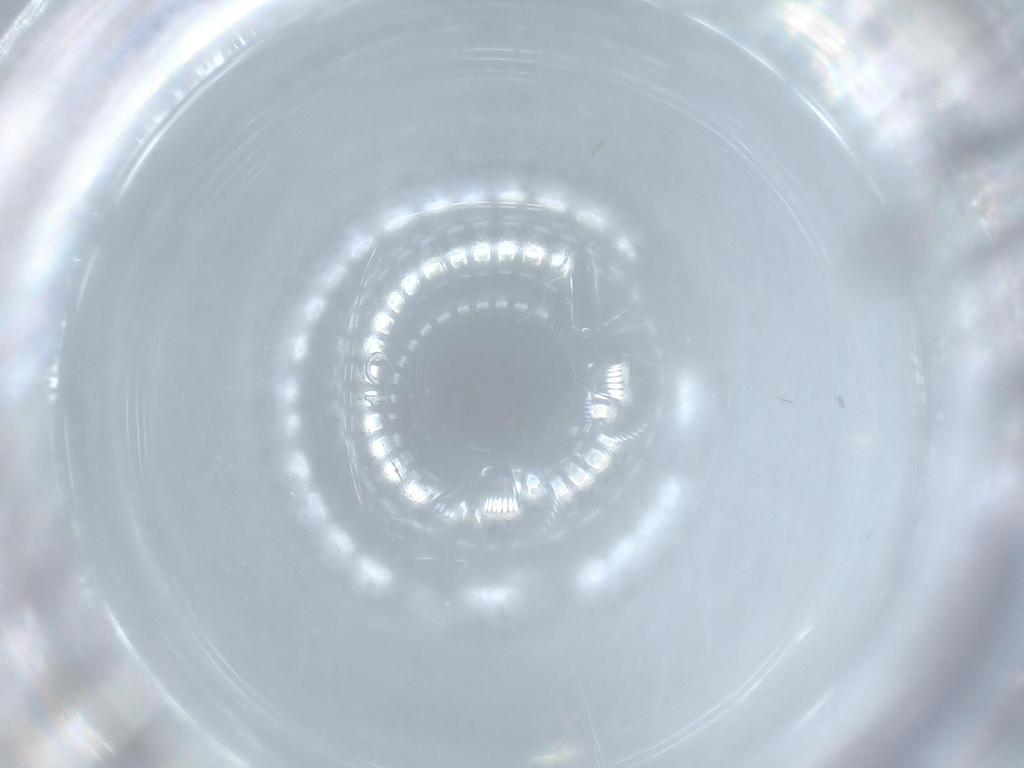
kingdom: Animalia
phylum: Arthropoda
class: Insecta
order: Diptera
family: Cecidomyiidae
